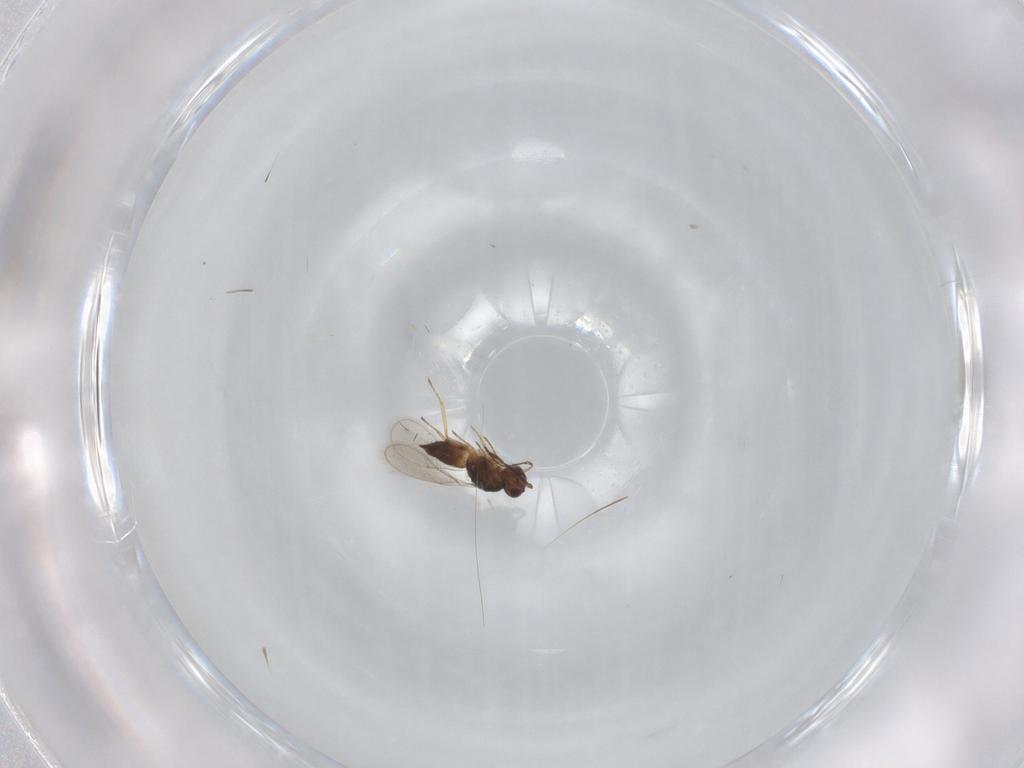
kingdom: Animalia
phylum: Arthropoda
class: Insecta
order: Hymenoptera
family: Eulophidae
